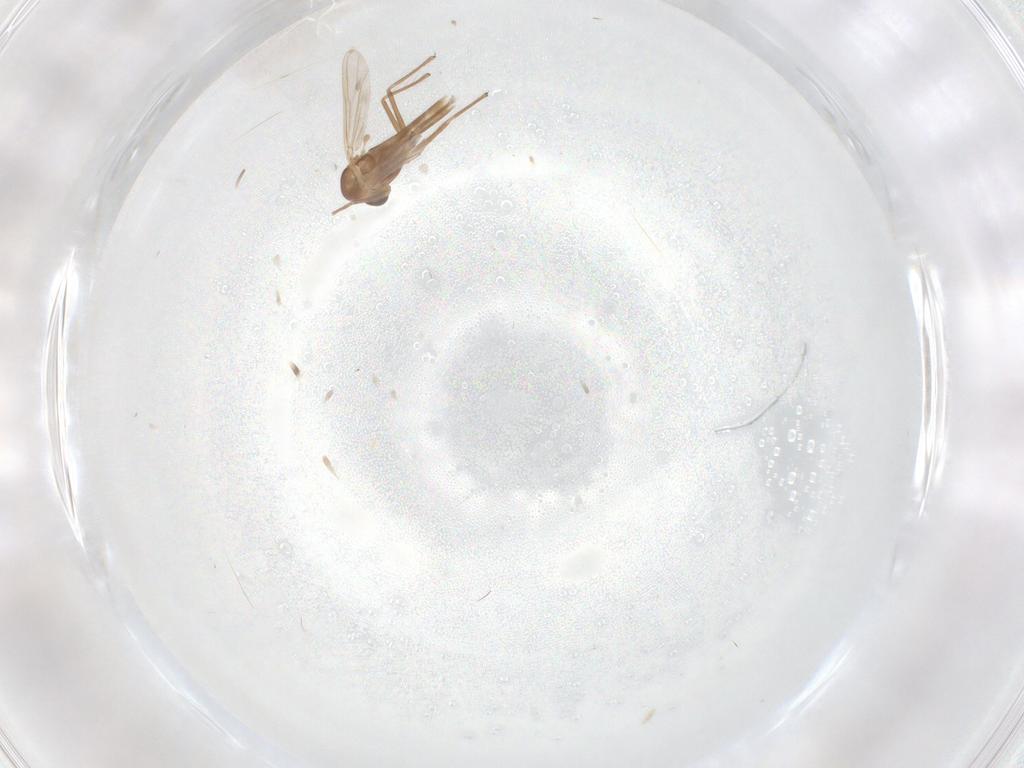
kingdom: Animalia
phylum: Arthropoda
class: Insecta
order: Diptera
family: Chironomidae
